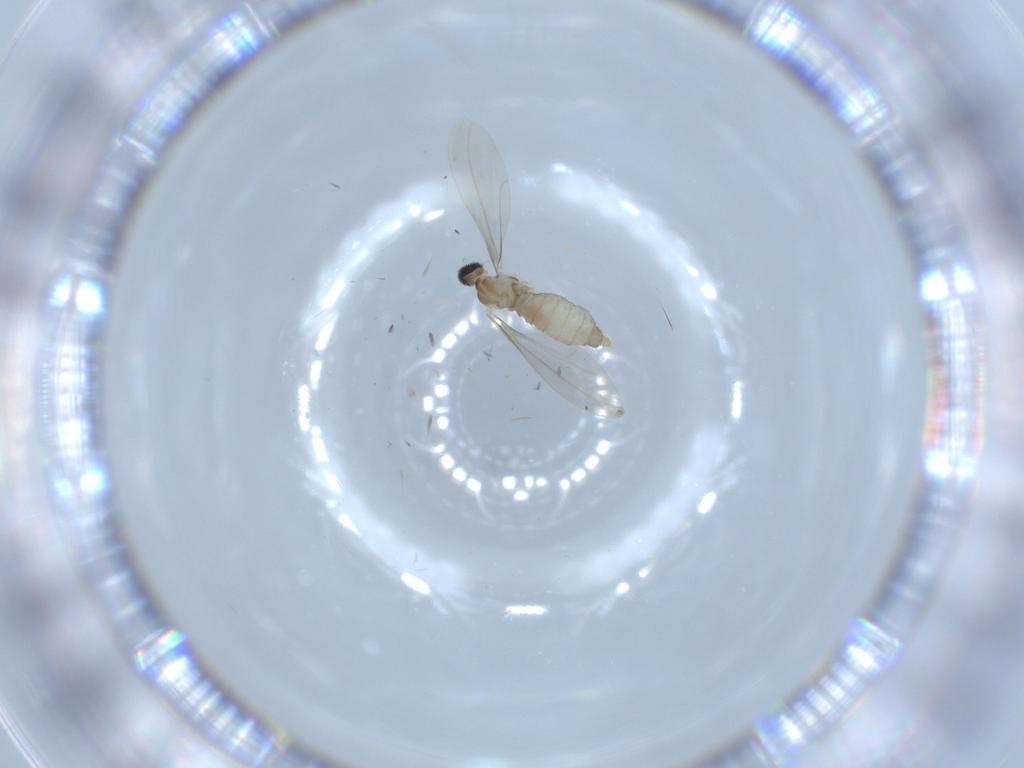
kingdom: Animalia
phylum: Arthropoda
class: Insecta
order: Diptera
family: Cecidomyiidae
